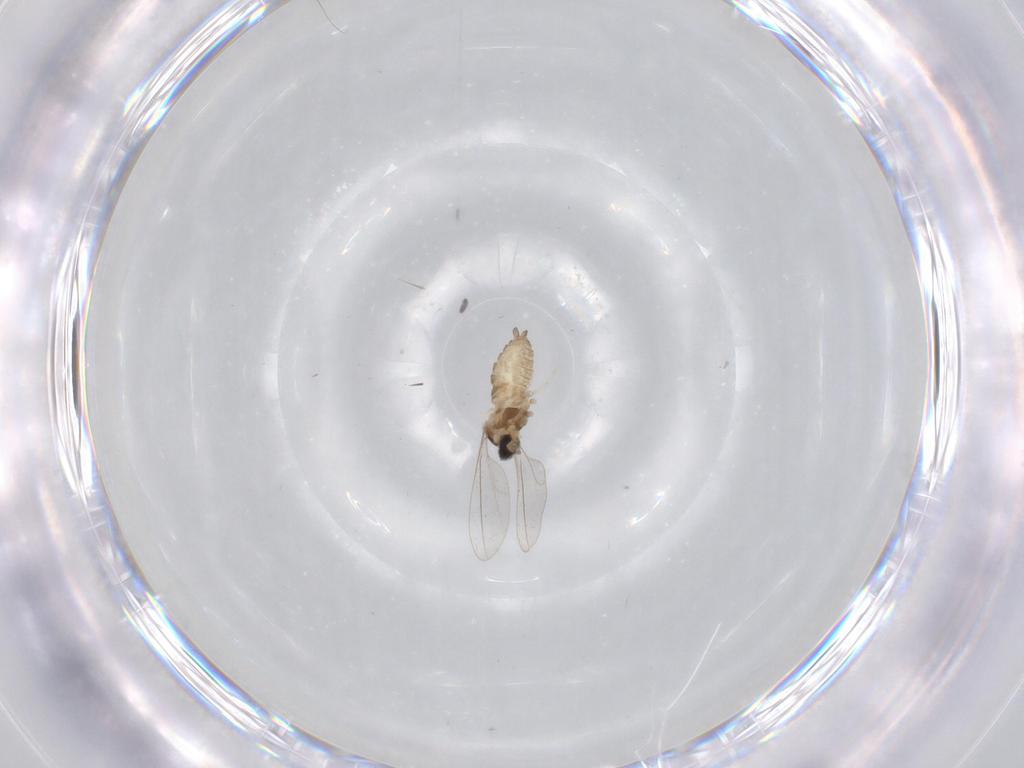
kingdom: Animalia
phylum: Arthropoda
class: Insecta
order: Diptera
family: Cecidomyiidae
